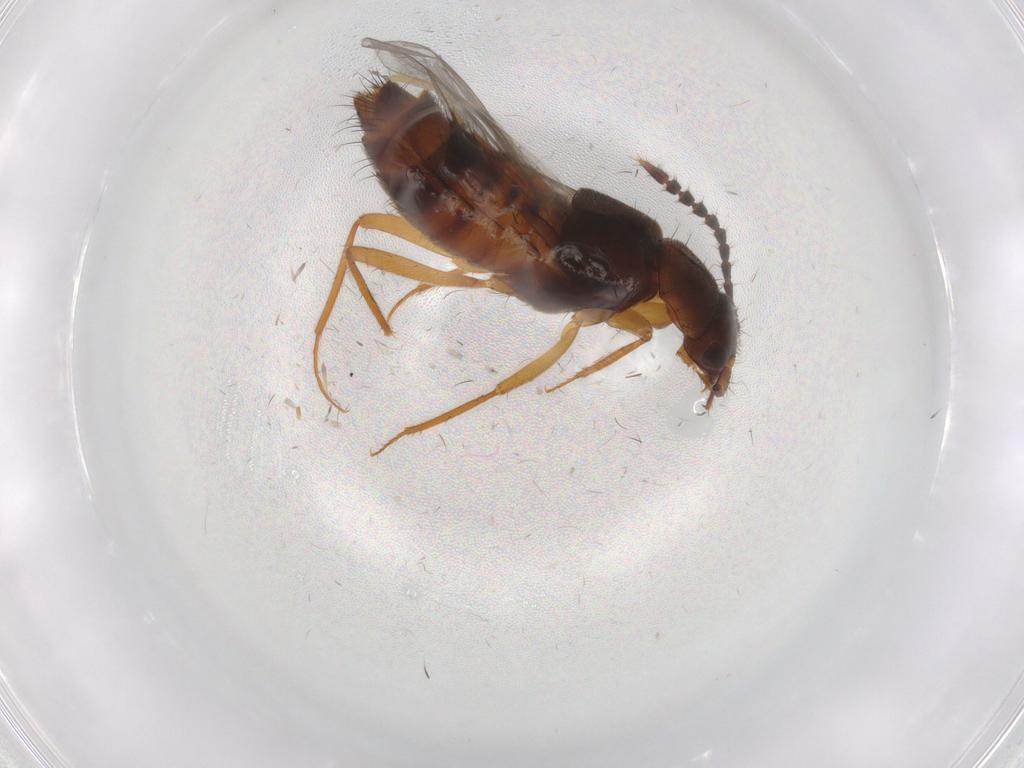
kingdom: Animalia
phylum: Arthropoda
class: Insecta
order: Coleoptera
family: Staphylinidae
